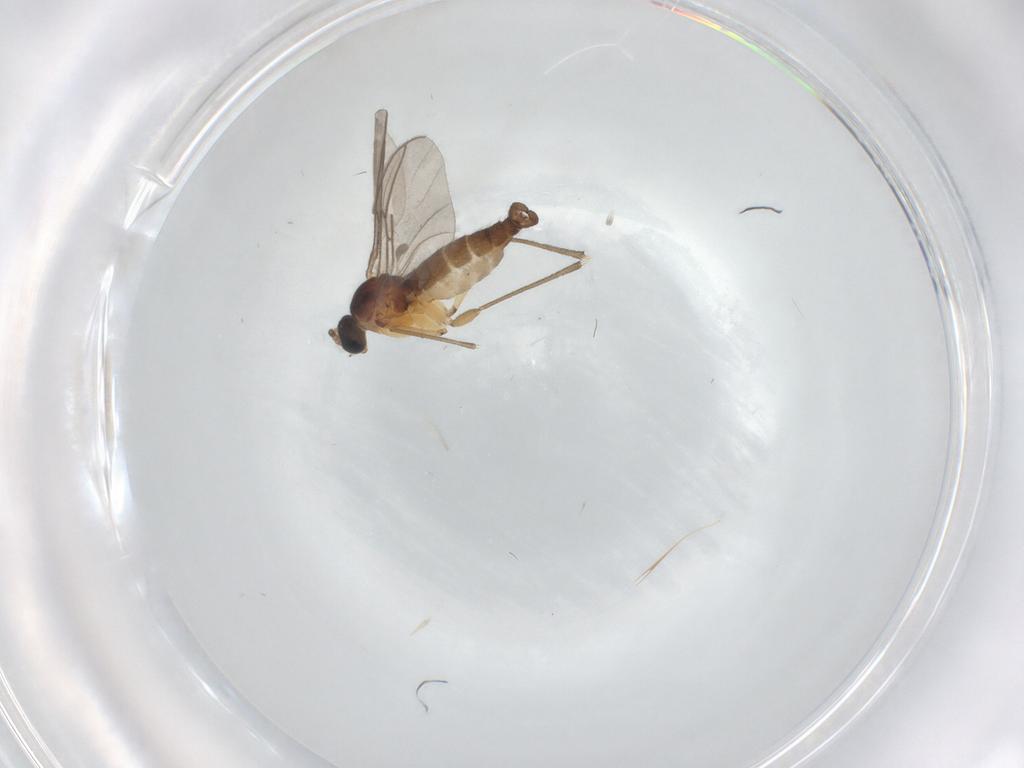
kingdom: Animalia
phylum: Arthropoda
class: Insecta
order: Diptera
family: Sciaridae
